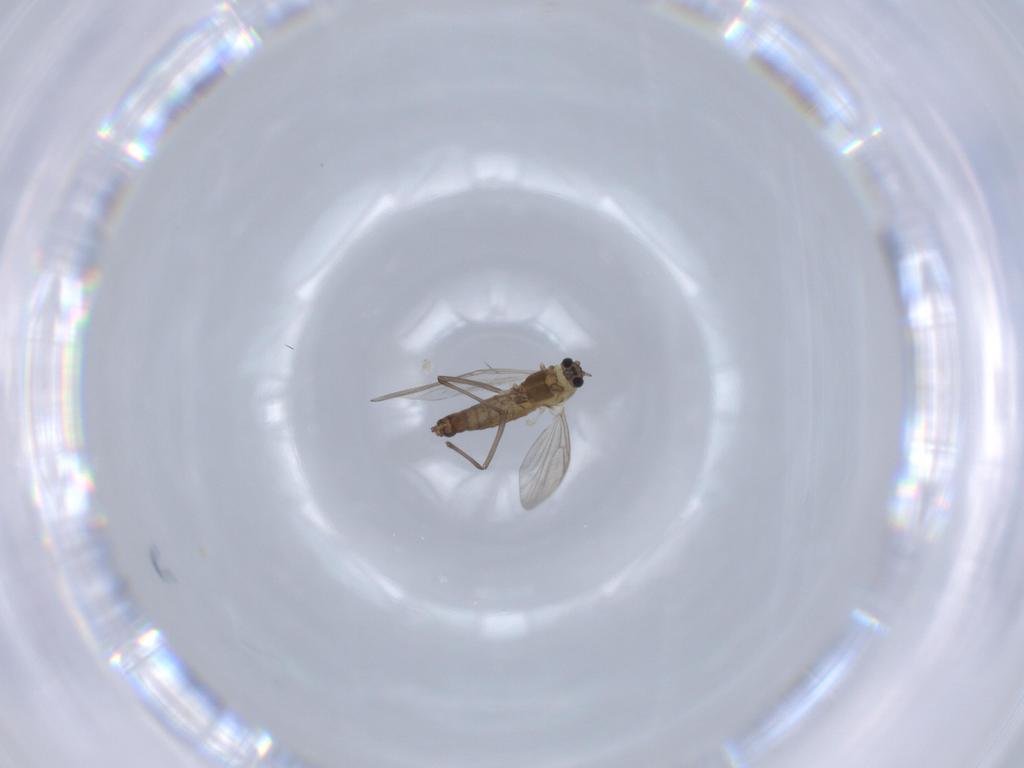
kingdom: Animalia
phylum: Arthropoda
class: Insecta
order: Diptera
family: Chironomidae
